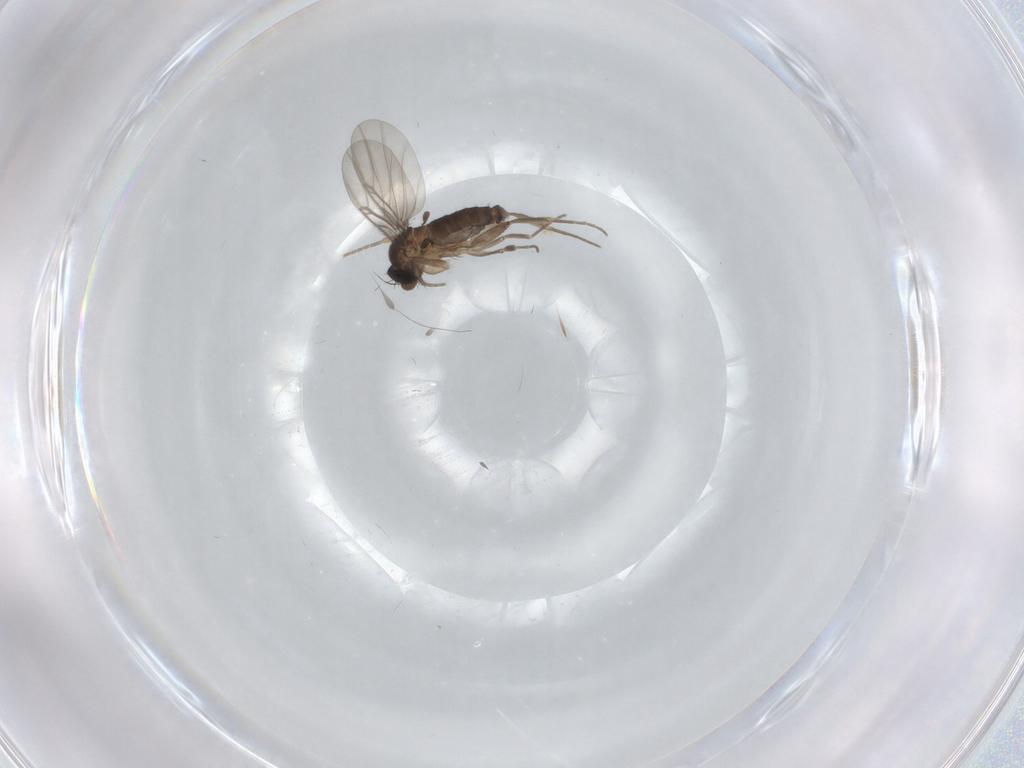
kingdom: Animalia
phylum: Arthropoda
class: Insecta
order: Diptera
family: Phoridae
